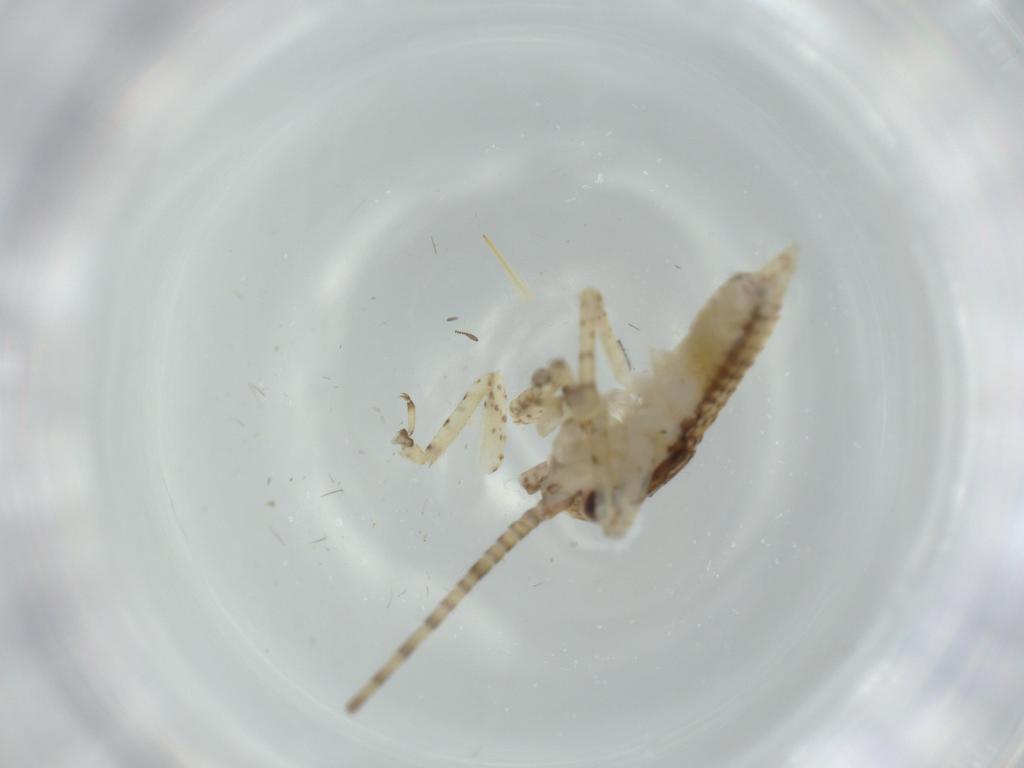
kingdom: Animalia
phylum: Arthropoda
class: Insecta
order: Orthoptera
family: Gryllidae
